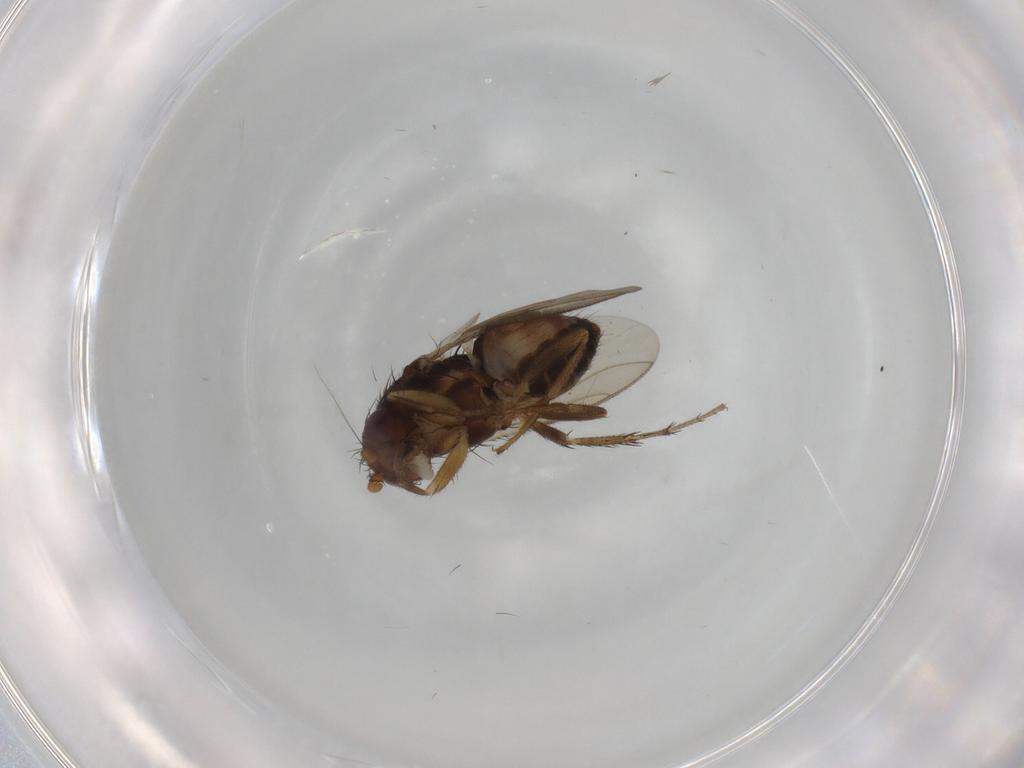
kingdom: Animalia
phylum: Arthropoda
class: Insecta
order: Diptera
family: Sphaeroceridae
